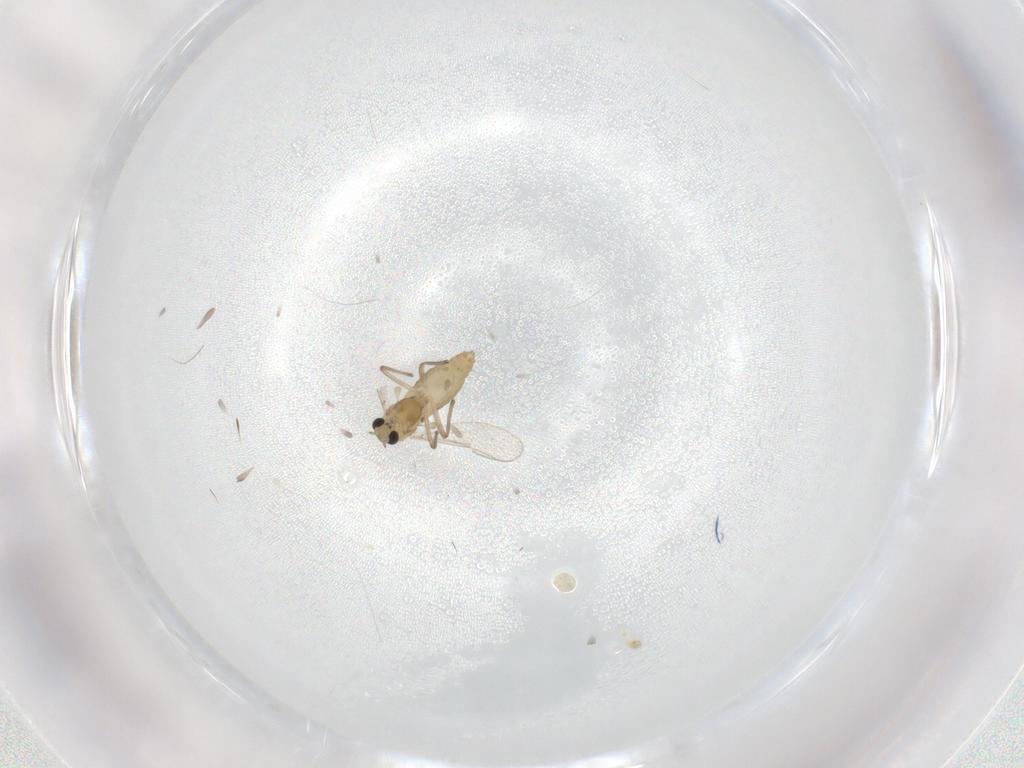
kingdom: Animalia
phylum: Arthropoda
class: Insecta
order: Diptera
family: Chironomidae
